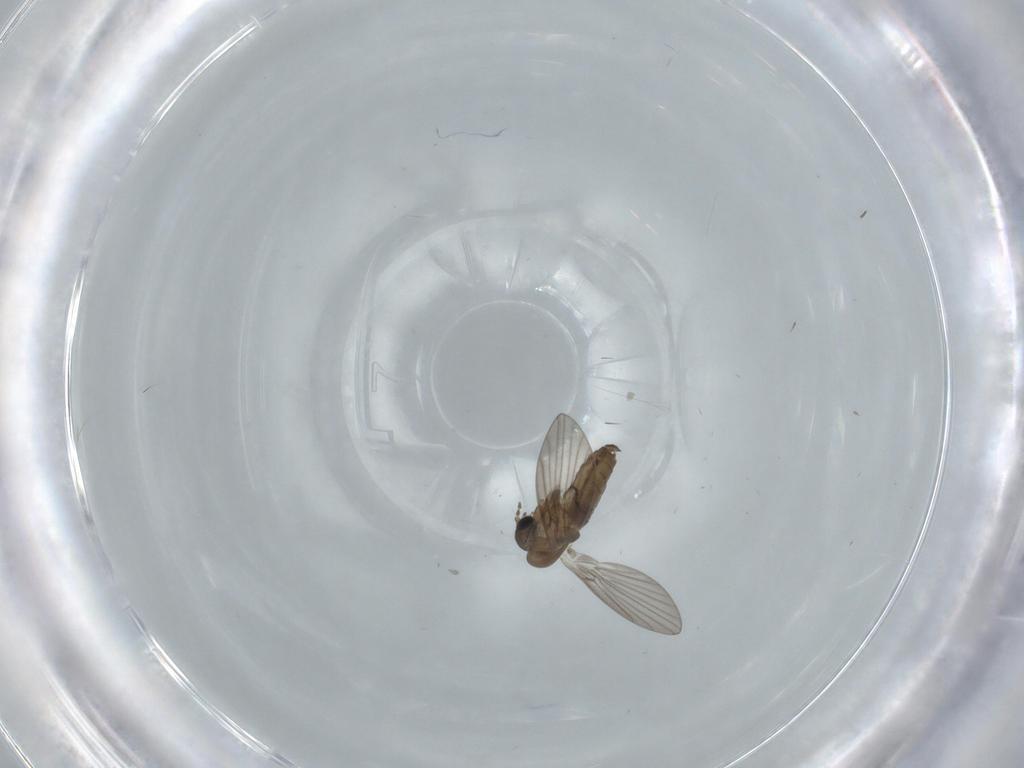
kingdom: Animalia
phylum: Arthropoda
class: Insecta
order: Diptera
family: Psychodidae
